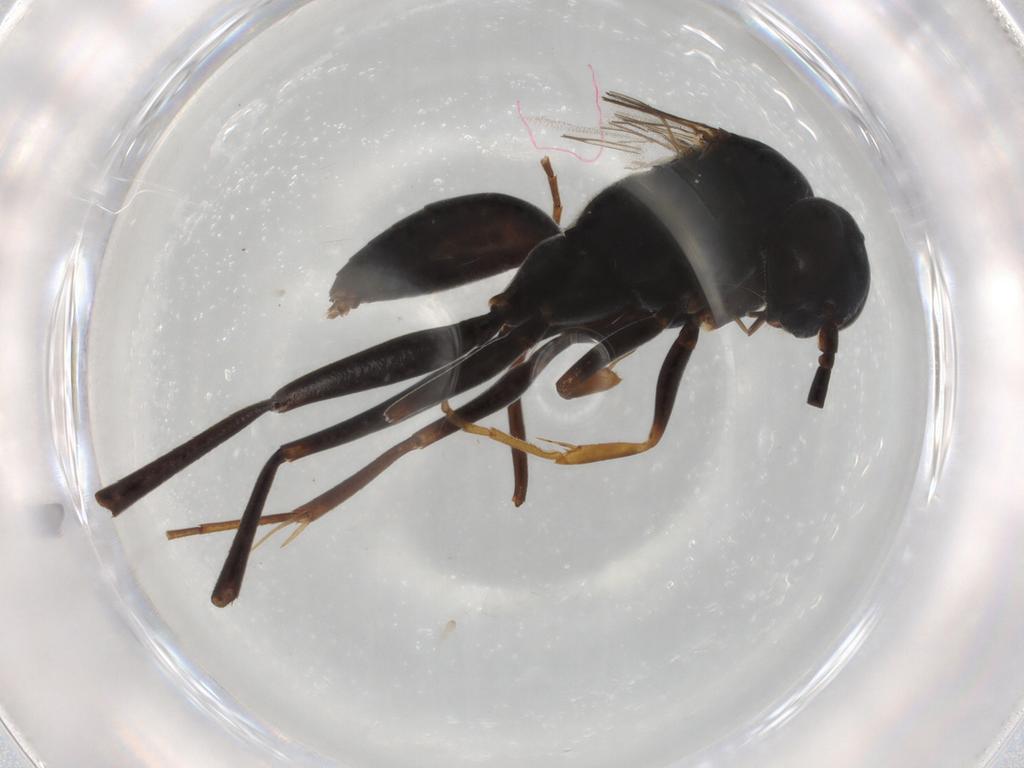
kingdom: Animalia
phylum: Arthropoda
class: Insecta
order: Hymenoptera
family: Pompilidae
